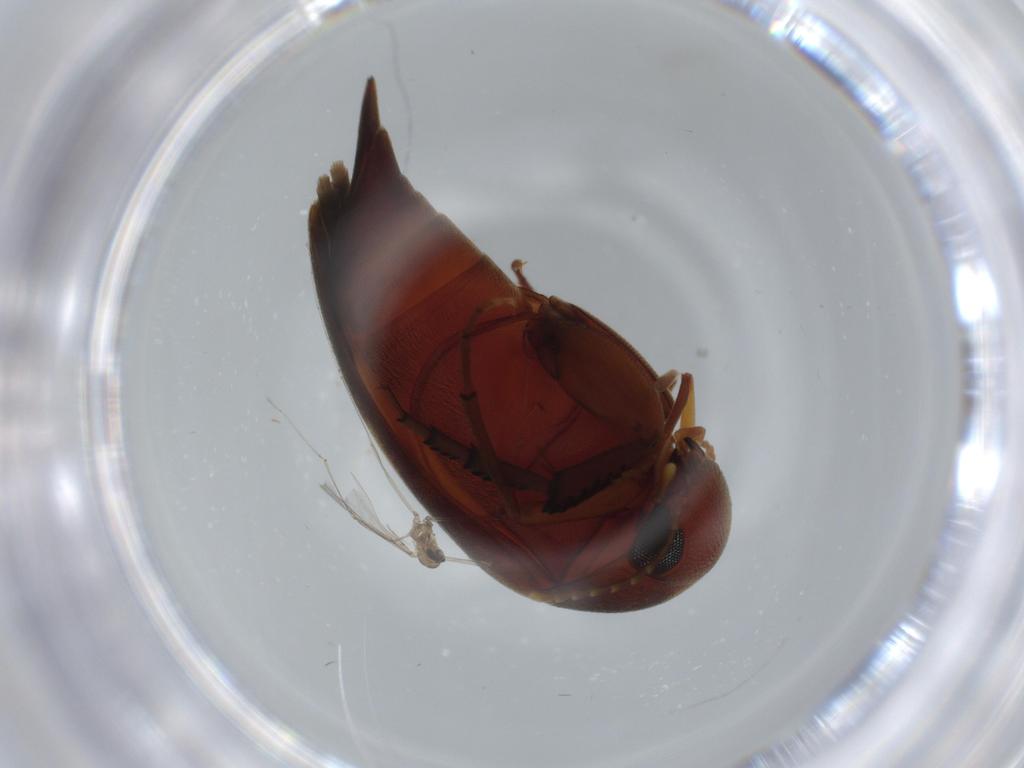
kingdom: Animalia
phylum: Arthropoda
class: Insecta
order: Coleoptera
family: Scraptiidae
